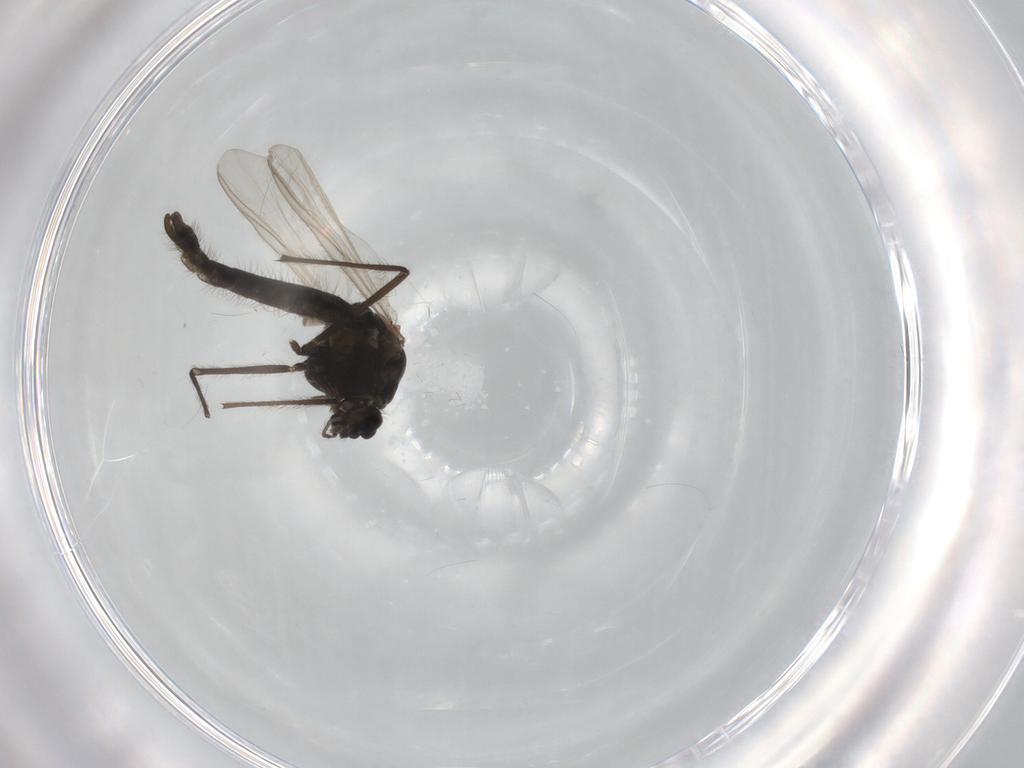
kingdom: Animalia
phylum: Arthropoda
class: Insecta
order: Diptera
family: Chironomidae
